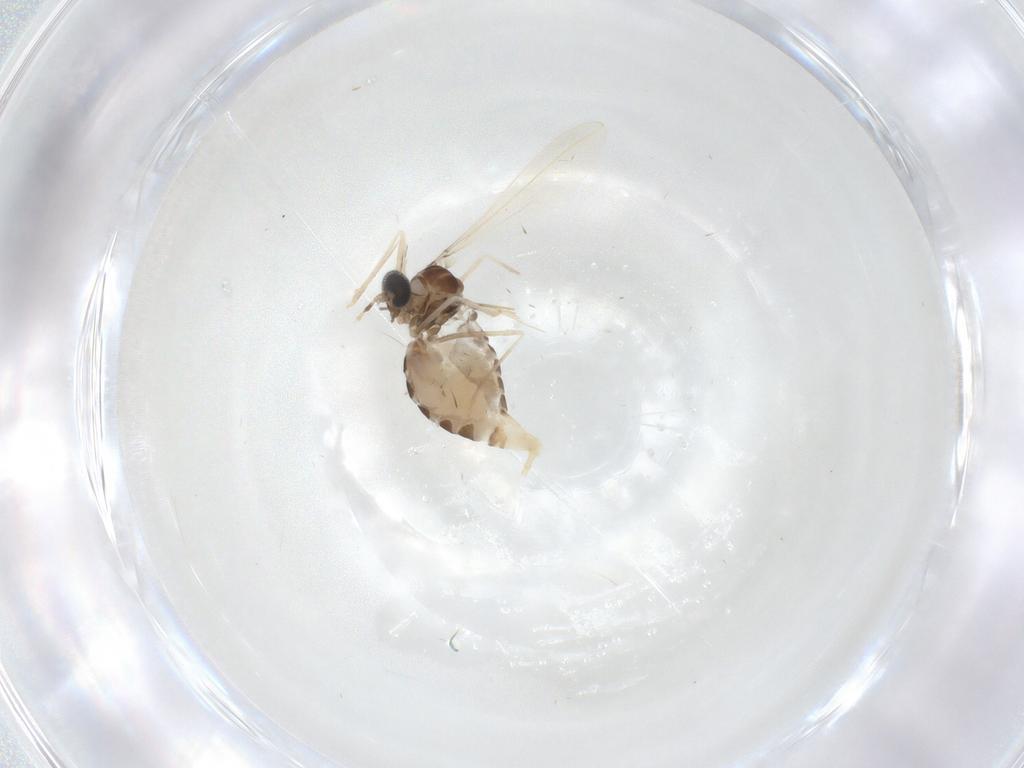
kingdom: Animalia
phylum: Arthropoda
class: Insecta
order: Diptera
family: Cecidomyiidae
